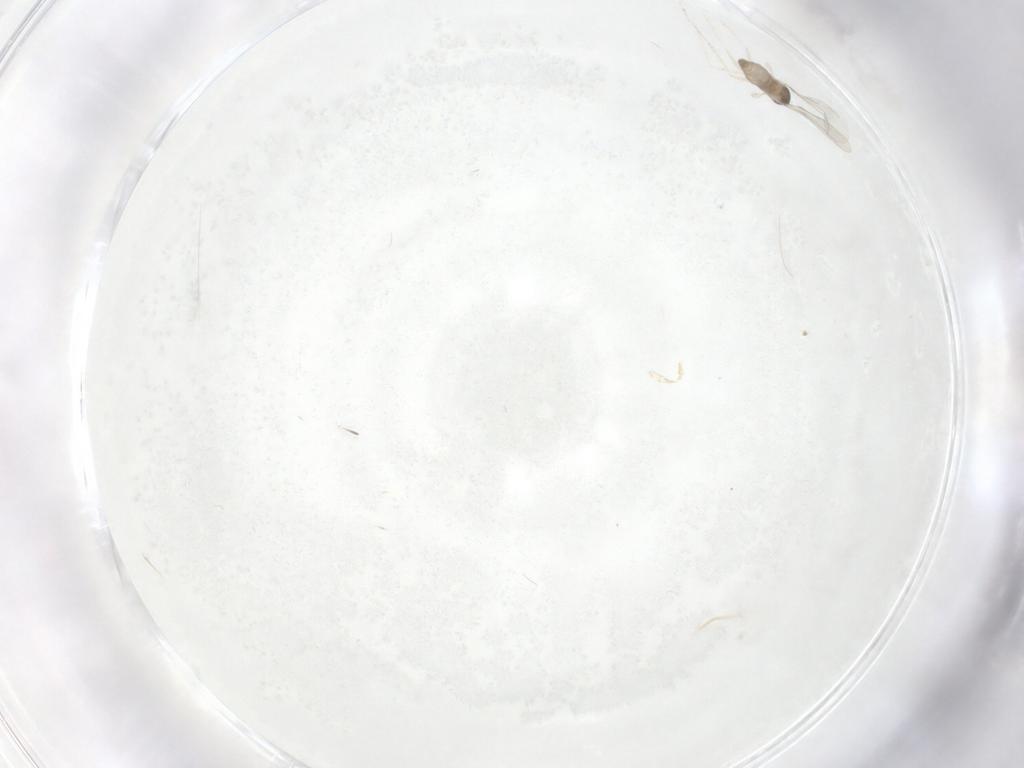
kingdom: Animalia
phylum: Arthropoda
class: Insecta
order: Diptera
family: Cecidomyiidae
